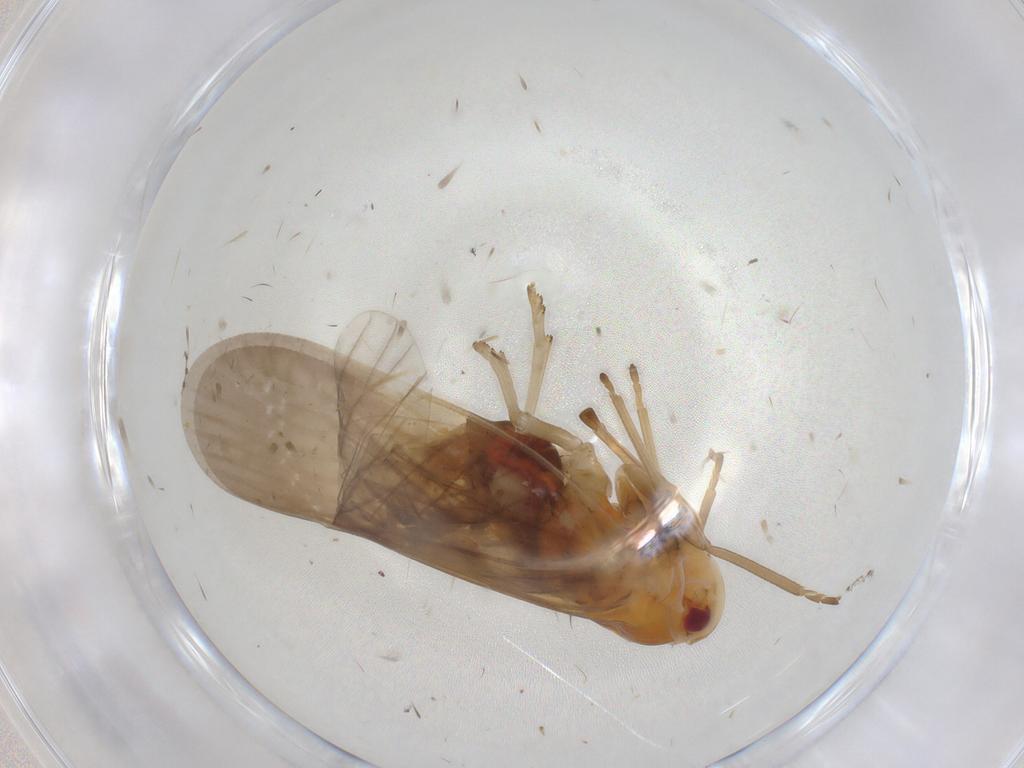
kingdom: Animalia
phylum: Arthropoda
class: Insecta
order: Hemiptera
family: Derbidae
